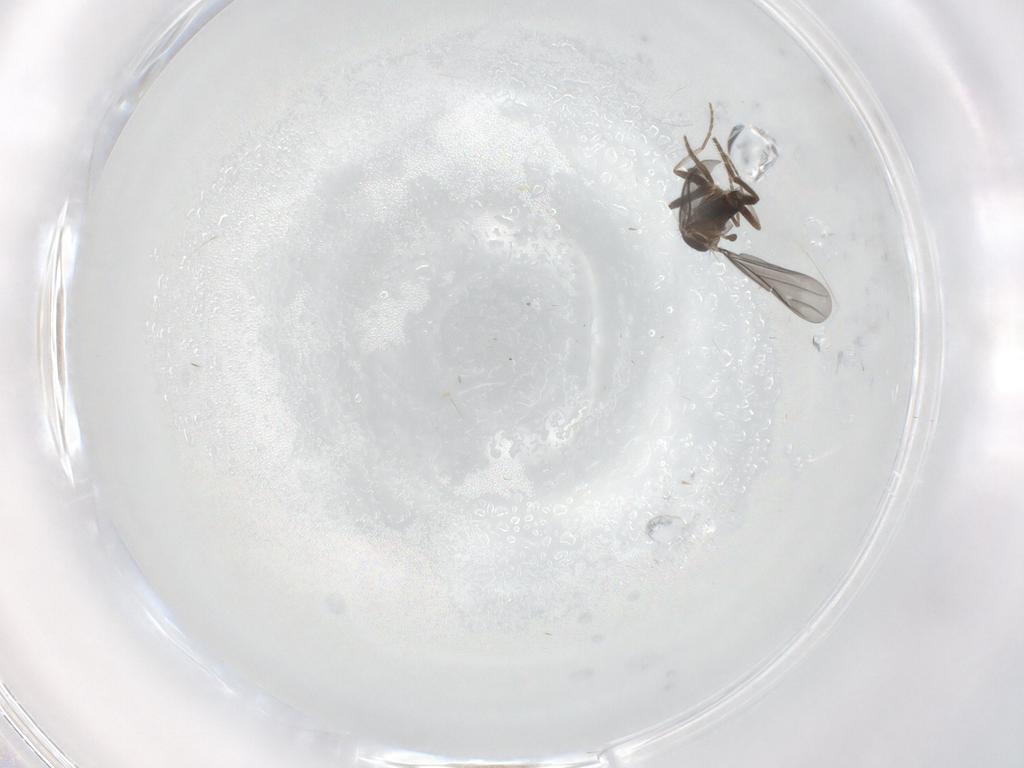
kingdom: Animalia
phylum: Arthropoda
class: Insecta
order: Diptera
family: Phoridae
